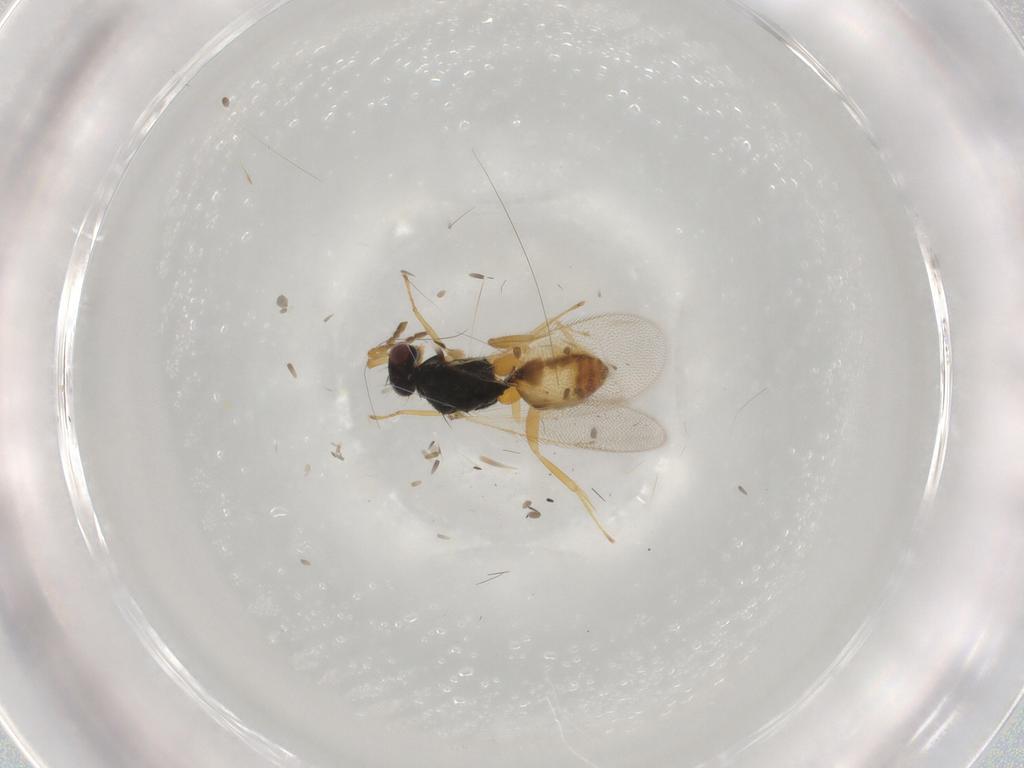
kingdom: Animalia
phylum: Arthropoda
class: Insecta
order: Hymenoptera
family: Eulophidae
